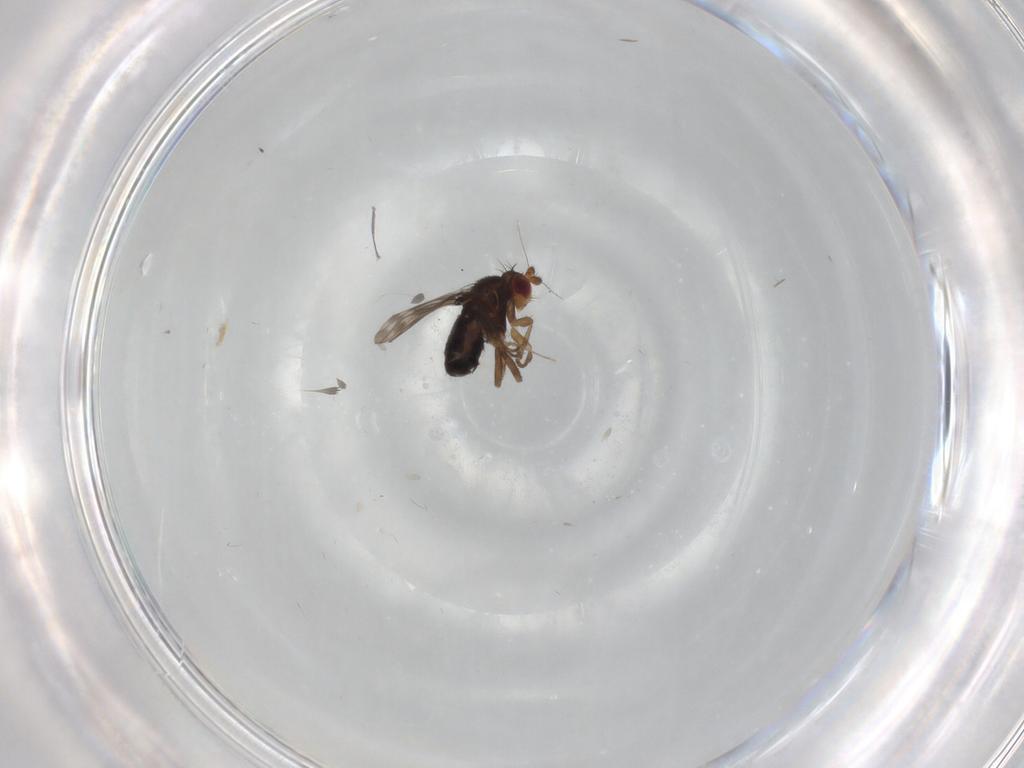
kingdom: Animalia
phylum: Arthropoda
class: Insecta
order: Diptera
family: Sphaeroceridae
